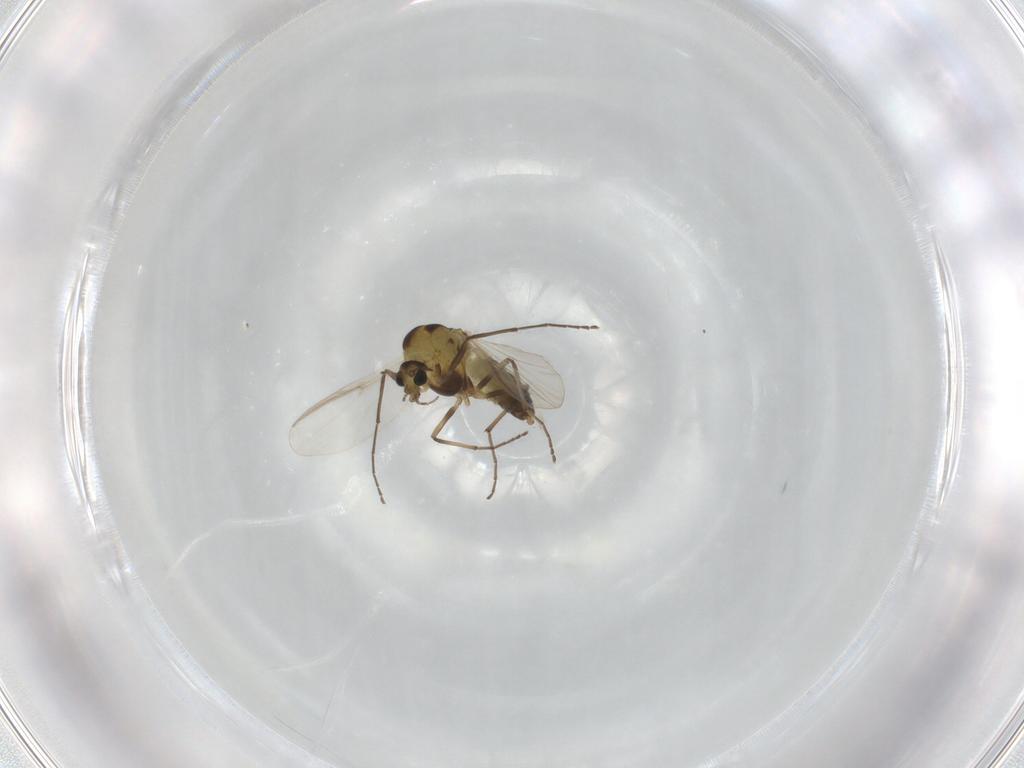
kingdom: Animalia
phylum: Arthropoda
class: Insecta
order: Diptera
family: Chironomidae
